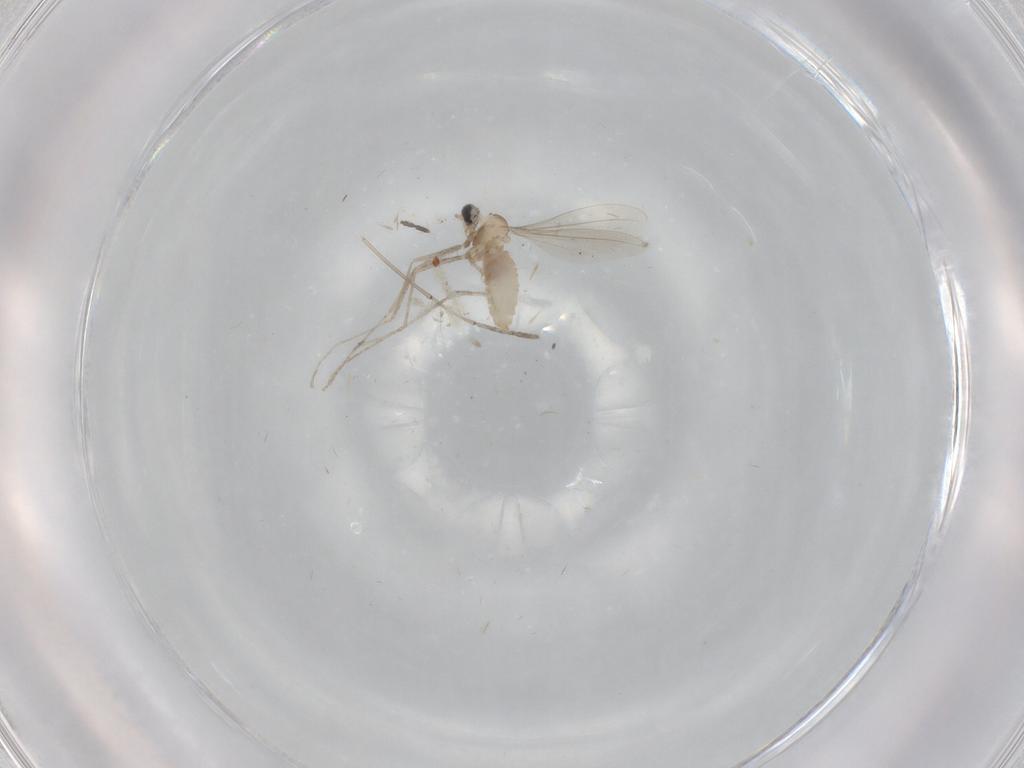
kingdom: Animalia
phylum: Arthropoda
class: Insecta
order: Diptera
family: Cecidomyiidae
